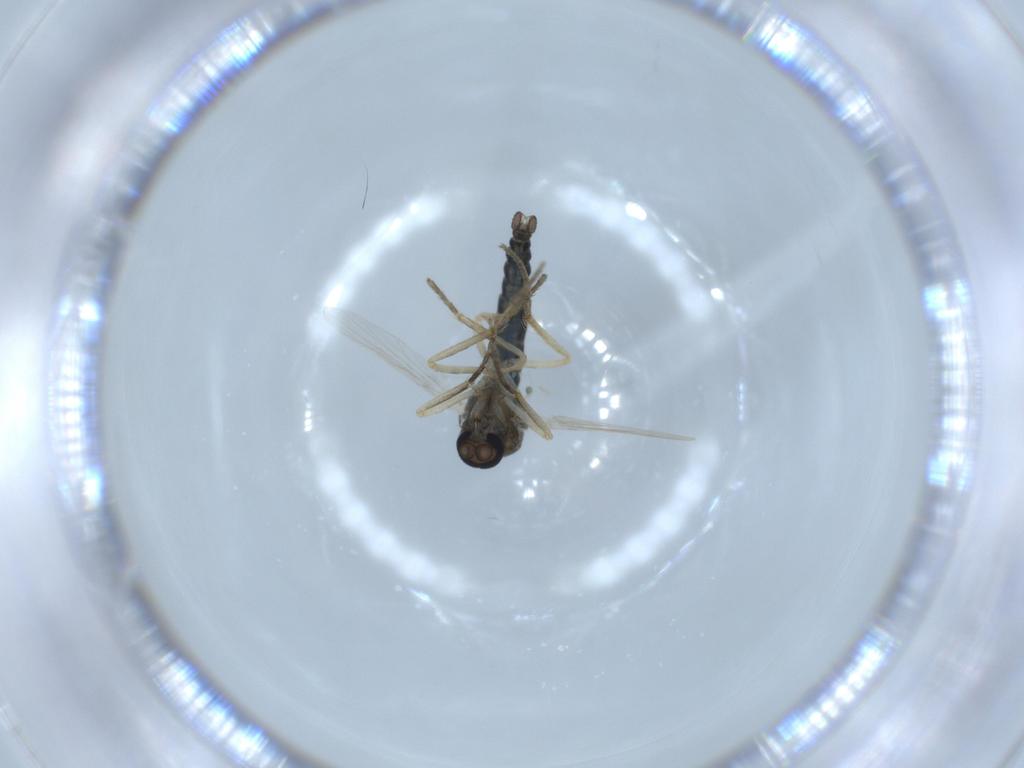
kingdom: Animalia
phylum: Arthropoda
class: Insecta
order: Diptera
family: Ceratopogonidae
